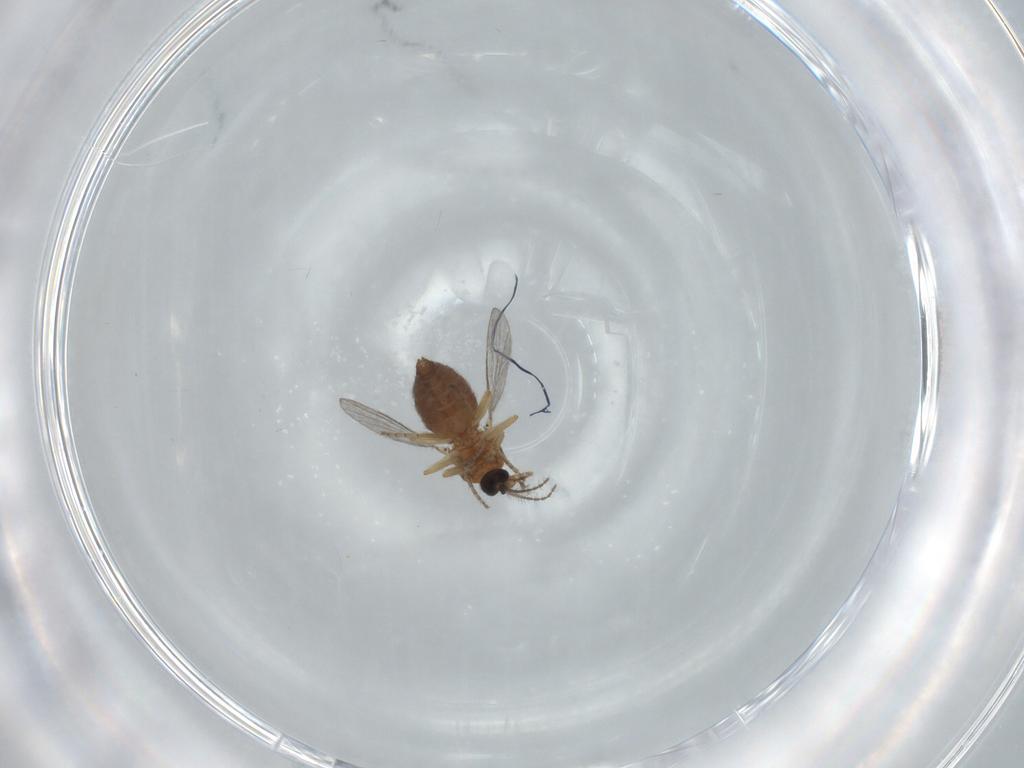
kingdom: Animalia
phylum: Arthropoda
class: Insecta
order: Diptera
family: Ceratopogonidae
